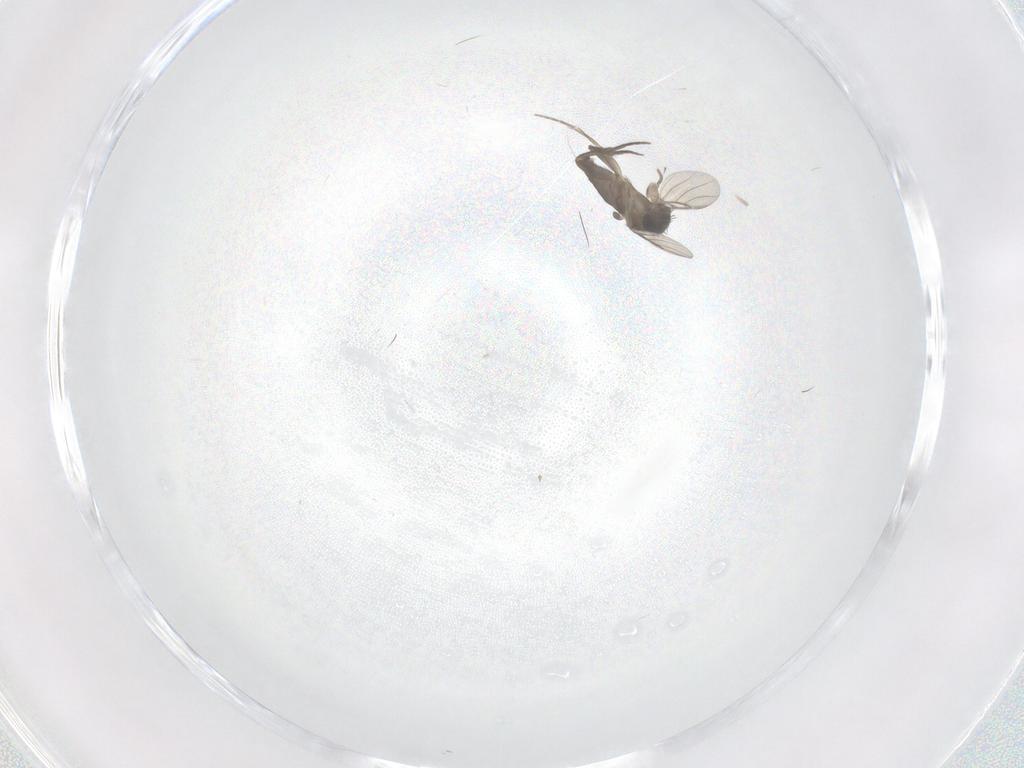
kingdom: Animalia
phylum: Arthropoda
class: Insecta
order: Diptera
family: Phoridae
